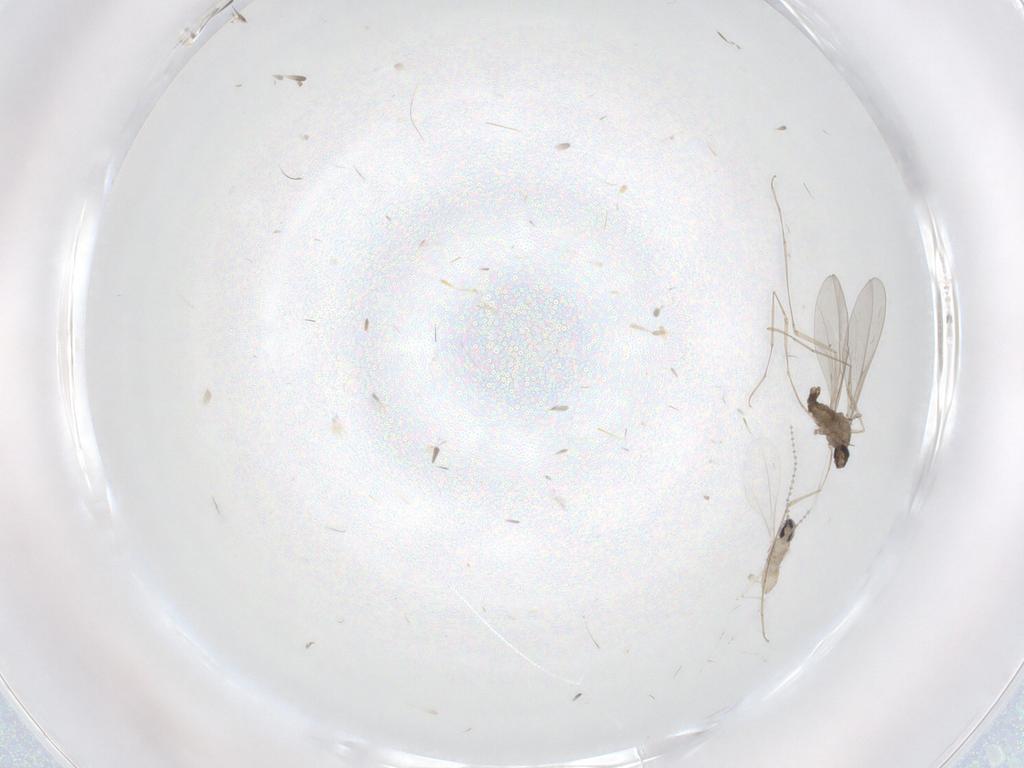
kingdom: Animalia
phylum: Arthropoda
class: Insecta
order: Diptera
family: Cecidomyiidae
